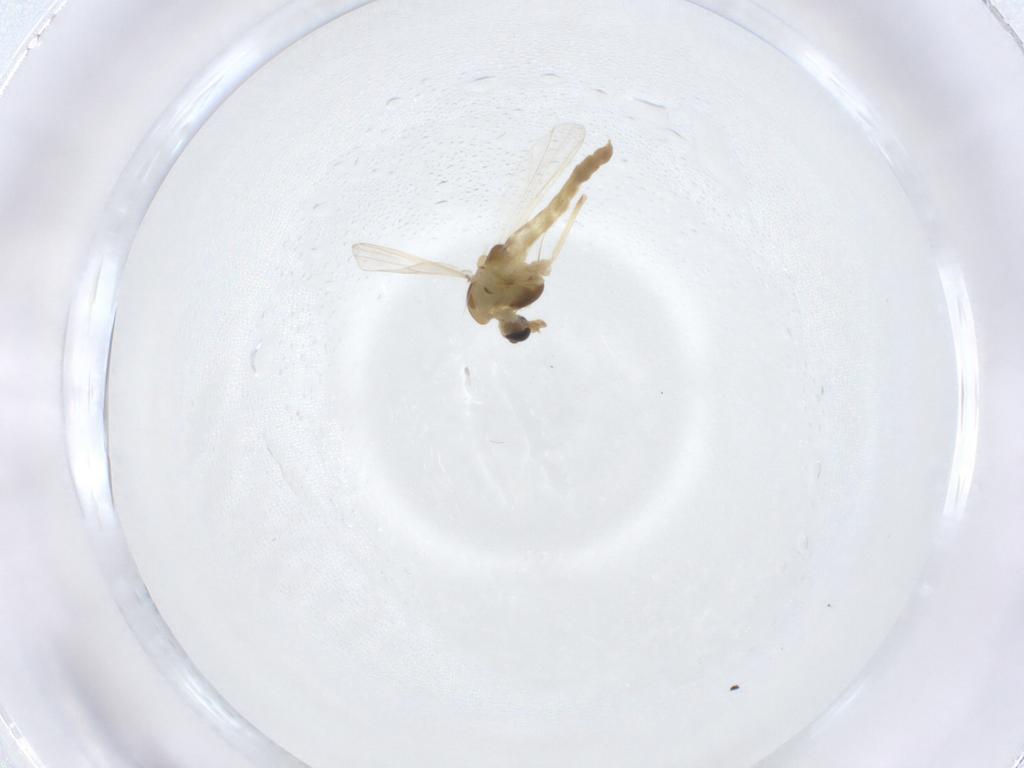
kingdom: Animalia
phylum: Arthropoda
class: Insecta
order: Diptera
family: Chironomidae
